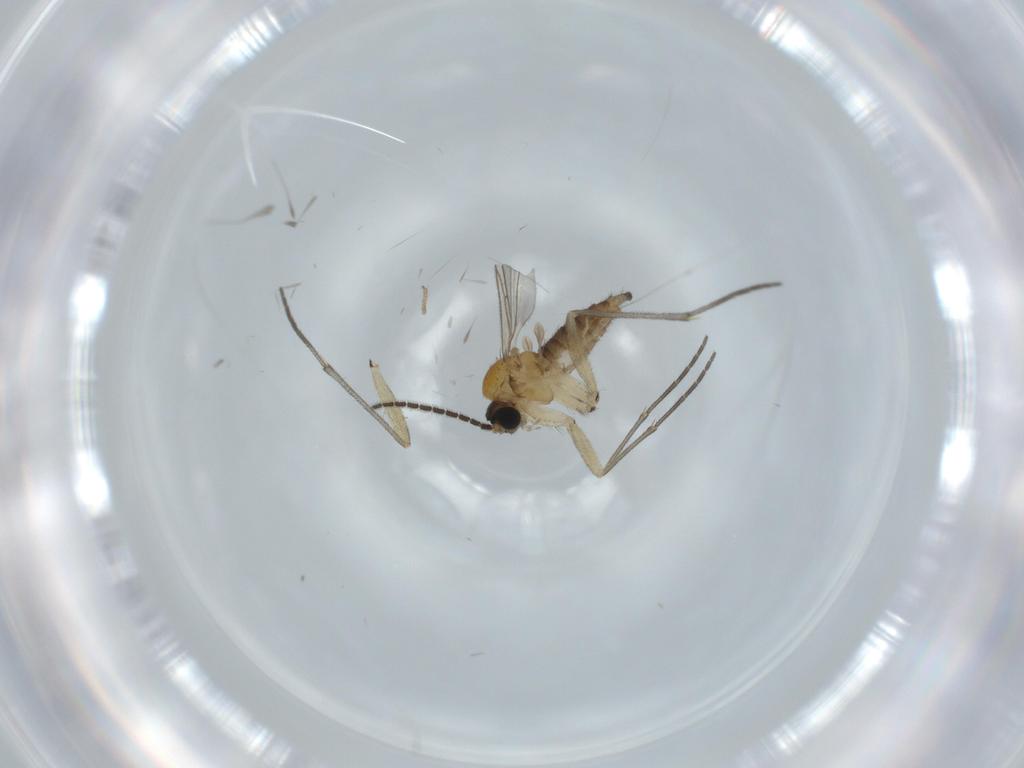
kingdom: Animalia
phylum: Arthropoda
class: Insecta
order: Diptera
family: Sciaridae
